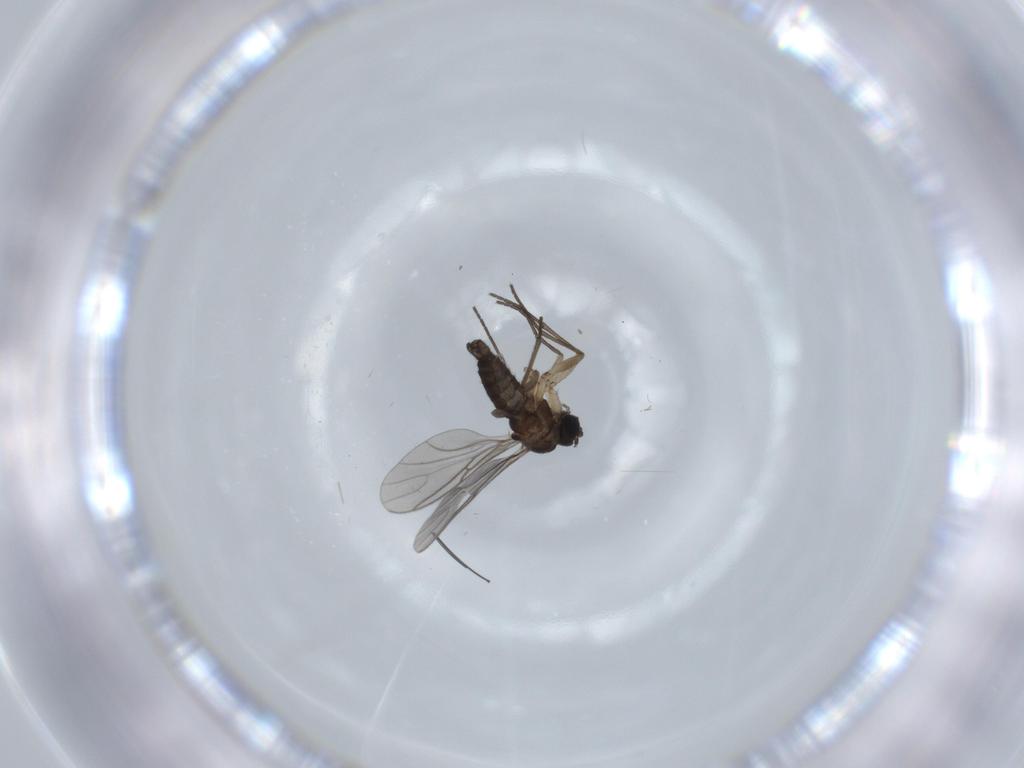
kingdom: Animalia
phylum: Arthropoda
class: Insecta
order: Diptera
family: Sciaridae
